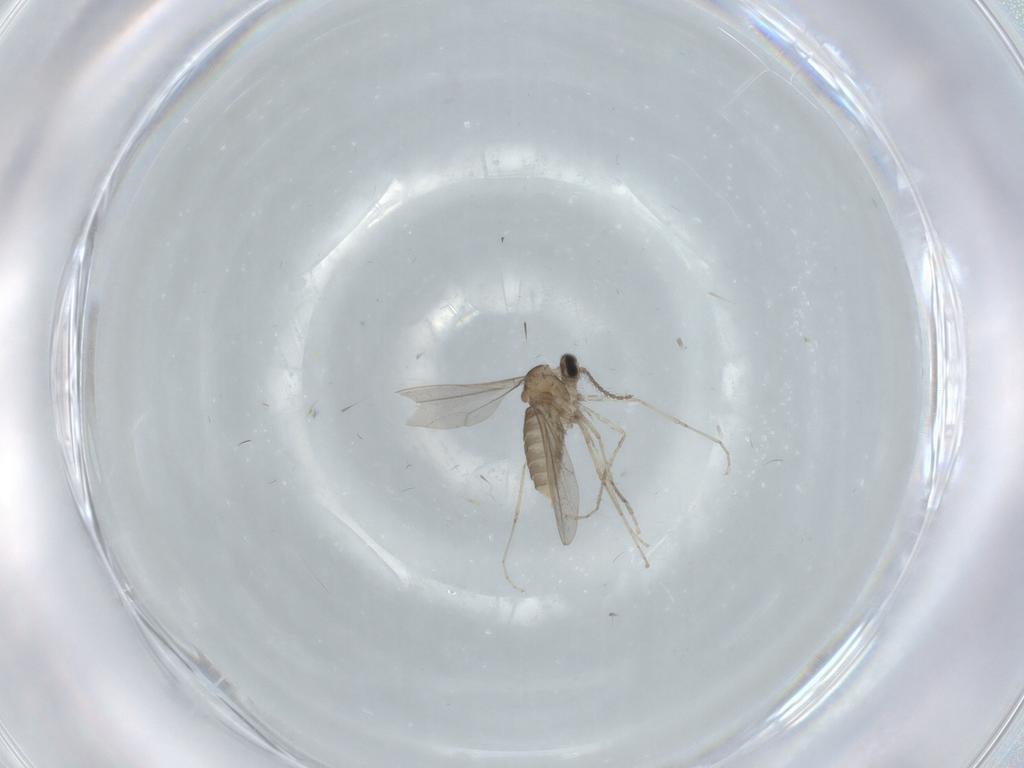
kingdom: Animalia
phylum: Arthropoda
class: Insecta
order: Diptera
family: Cecidomyiidae
